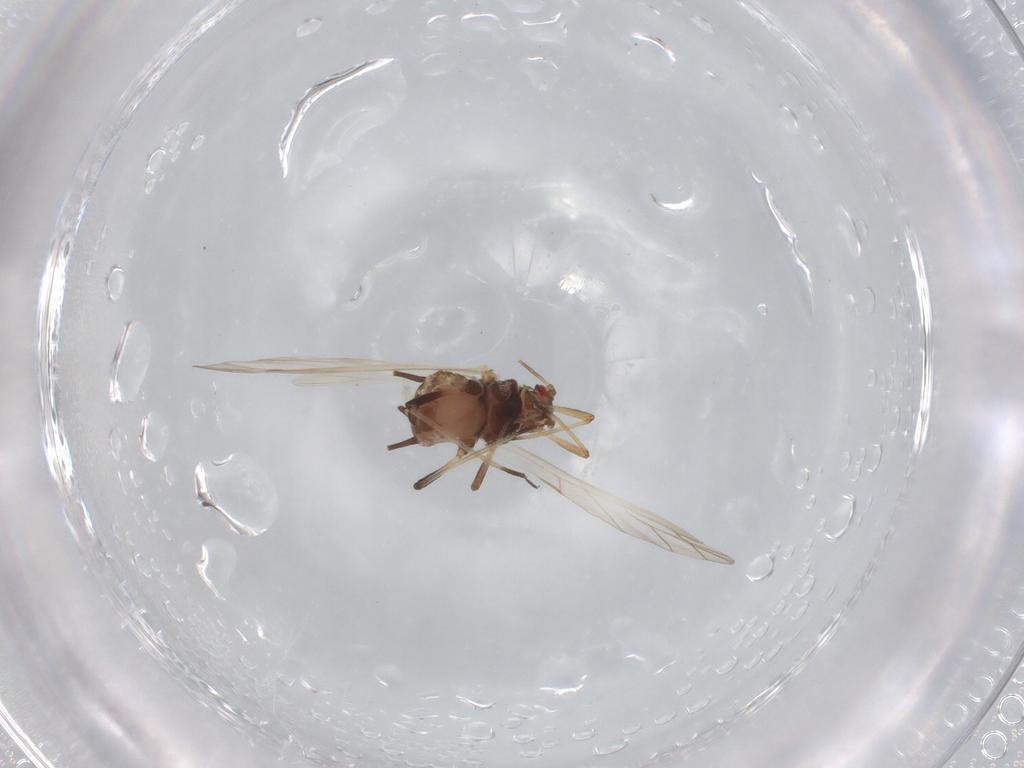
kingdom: Animalia
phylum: Arthropoda
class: Insecta
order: Hemiptera
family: Aphididae
